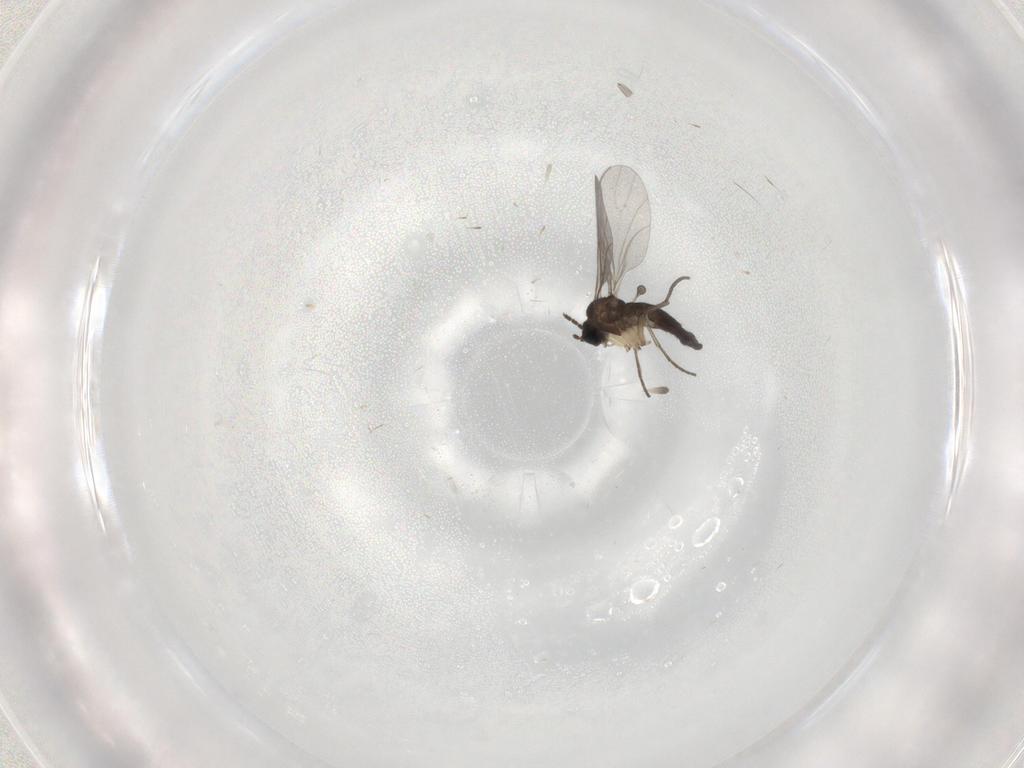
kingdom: Animalia
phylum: Arthropoda
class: Insecta
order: Diptera
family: Sciaridae
